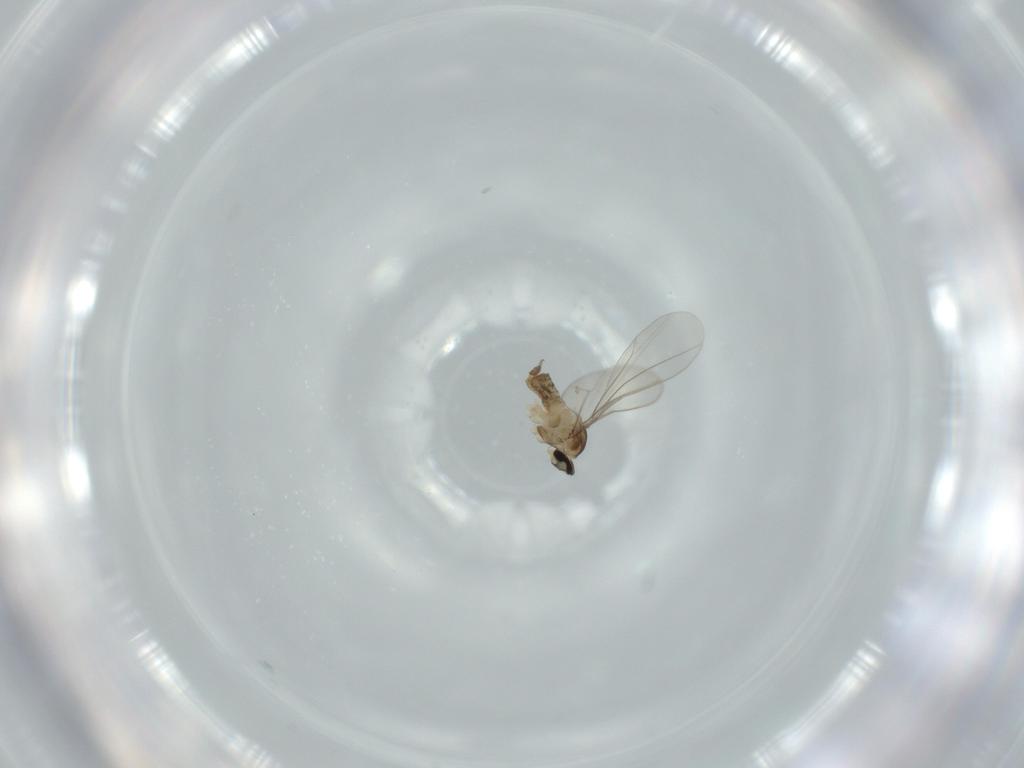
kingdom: Animalia
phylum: Arthropoda
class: Insecta
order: Diptera
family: Cecidomyiidae
